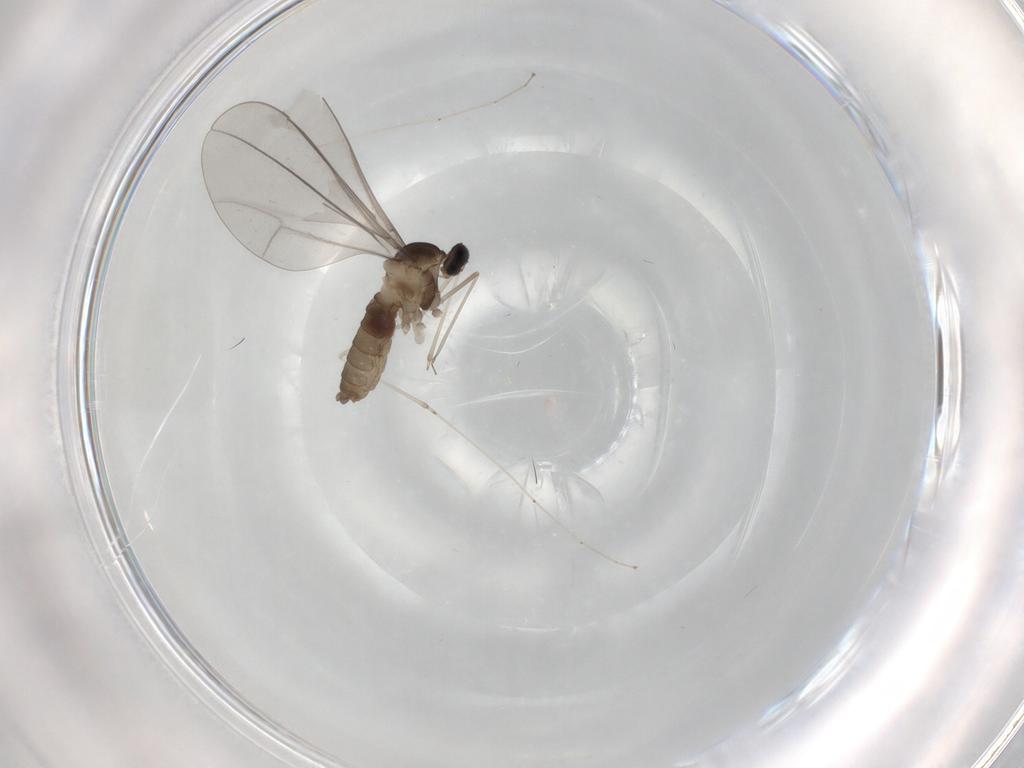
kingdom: Animalia
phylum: Arthropoda
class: Insecta
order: Diptera
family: Cecidomyiidae
